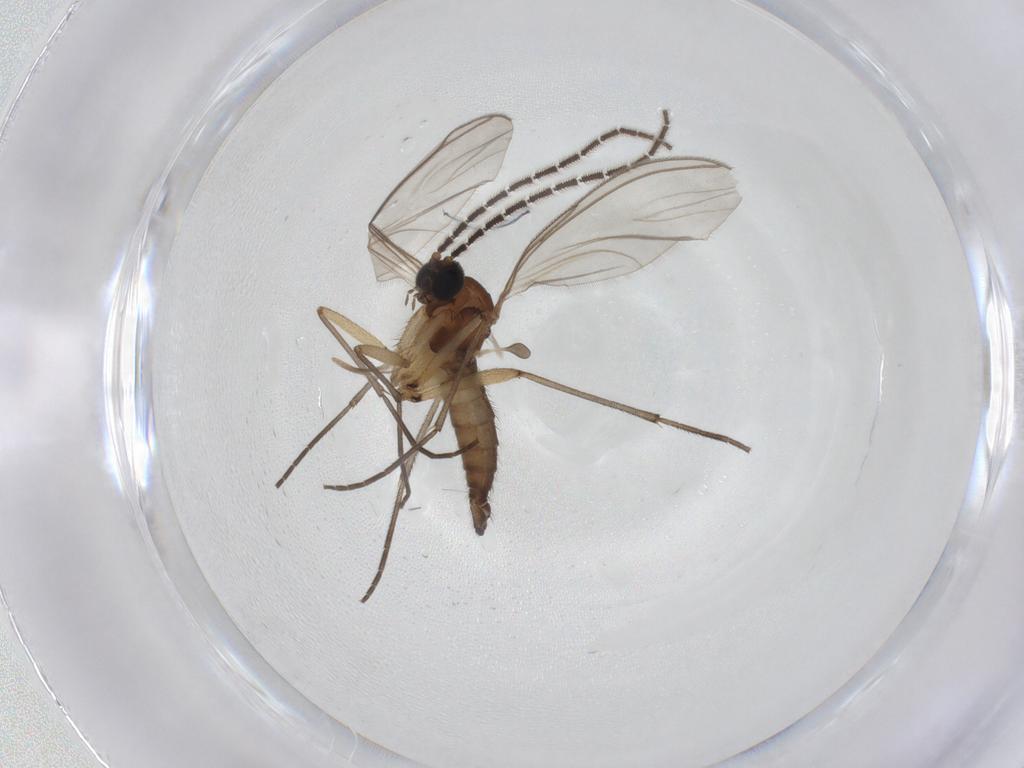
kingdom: Animalia
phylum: Arthropoda
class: Insecta
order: Diptera
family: Sciaridae
